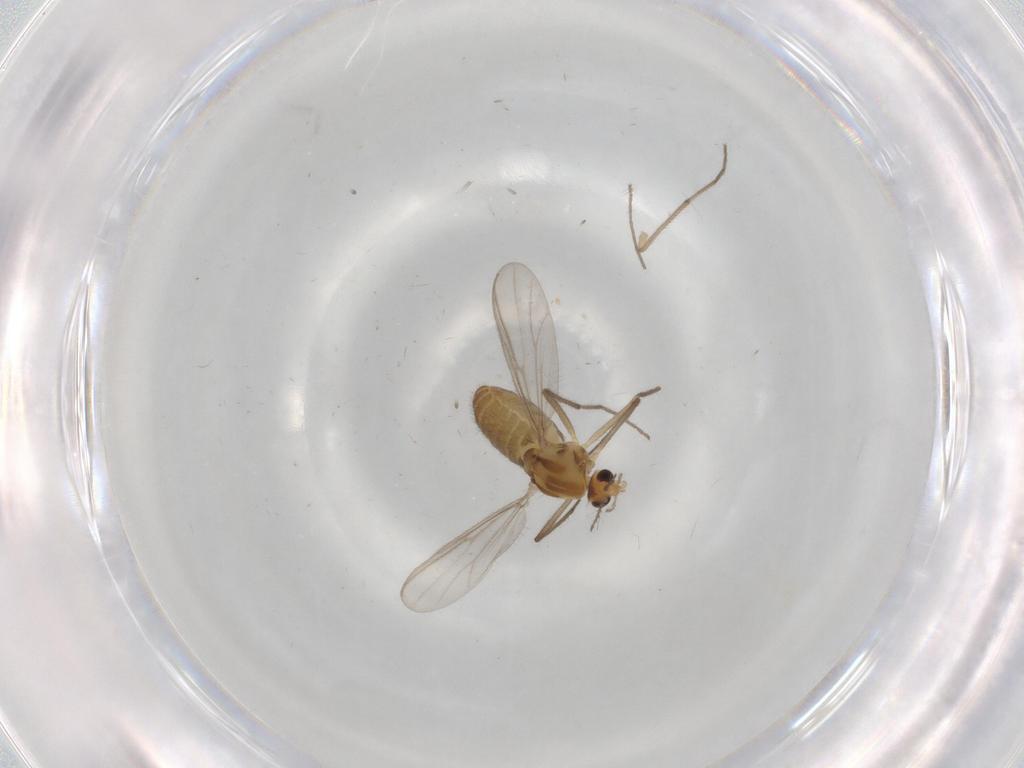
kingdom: Animalia
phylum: Arthropoda
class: Insecta
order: Diptera
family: Chironomidae
